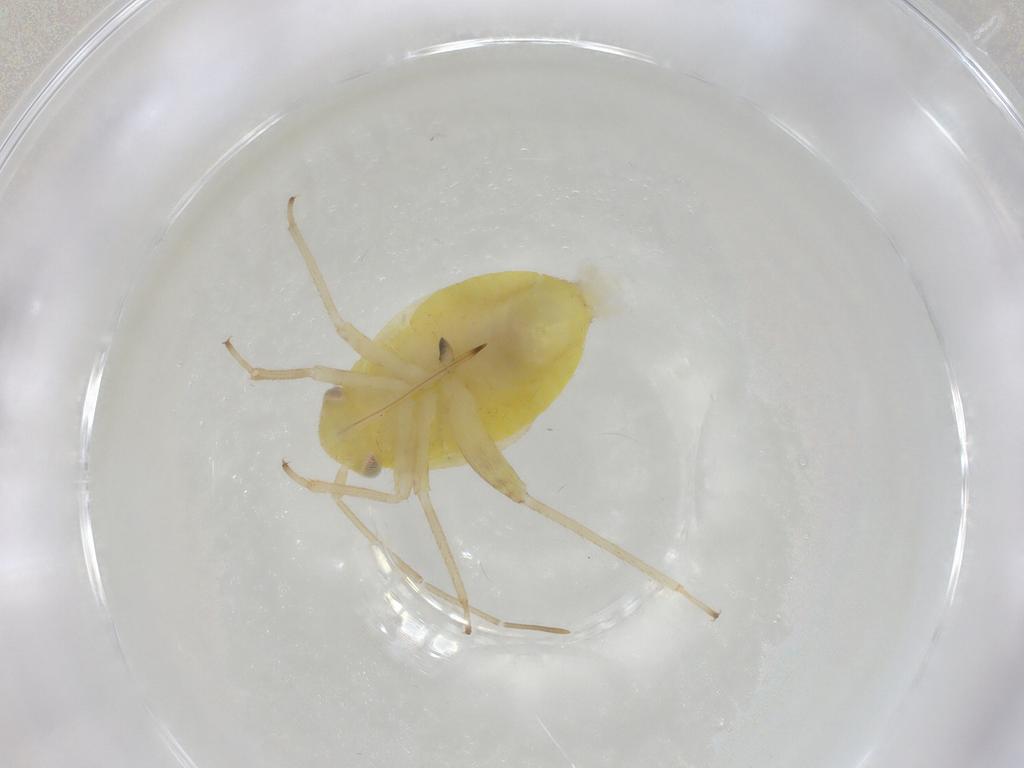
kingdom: Animalia
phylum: Arthropoda
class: Insecta
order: Hemiptera
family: Miridae
